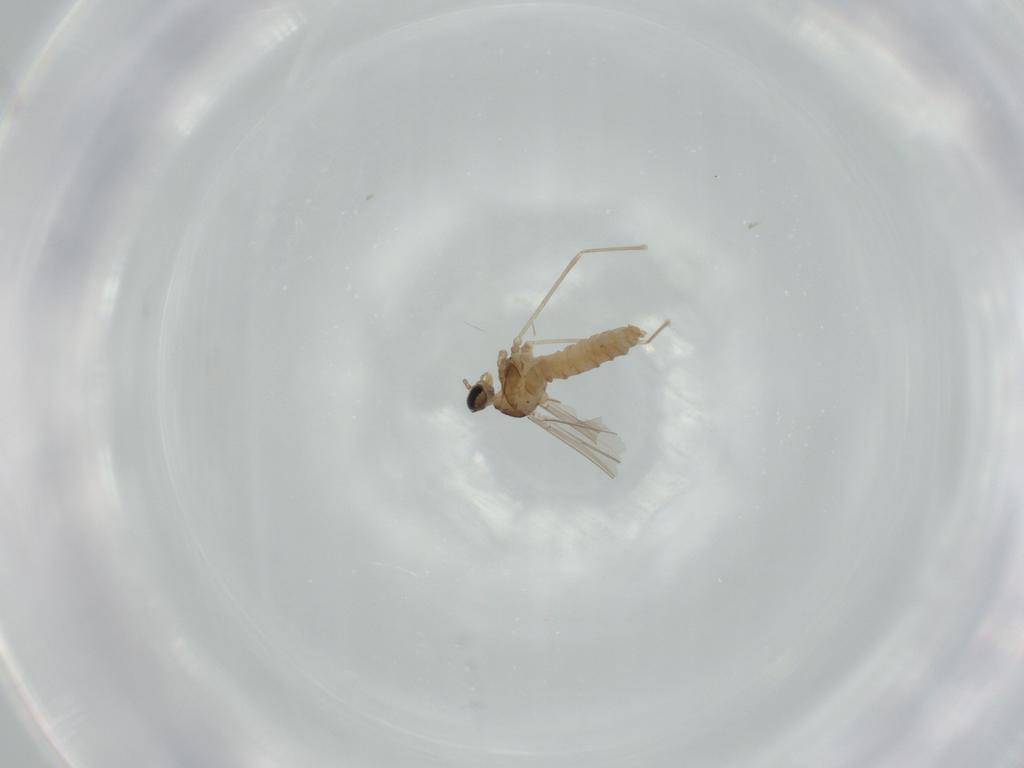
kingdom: Animalia
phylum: Arthropoda
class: Insecta
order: Diptera
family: Cecidomyiidae
